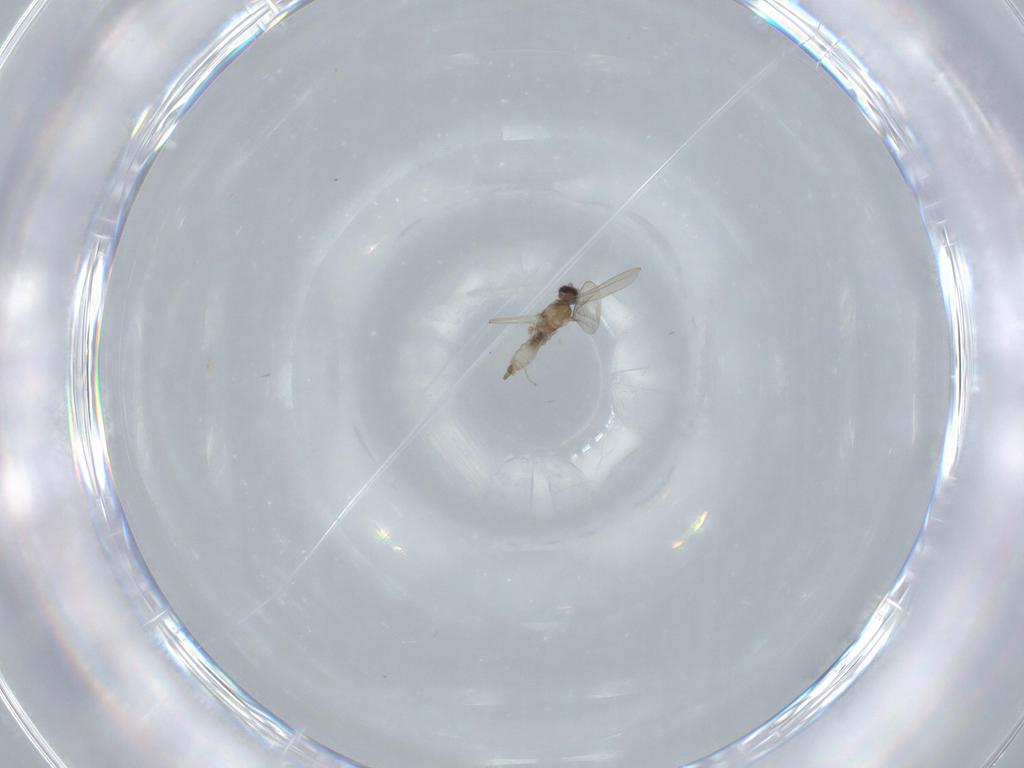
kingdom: Animalia
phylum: Arthropoda
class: Insecta
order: Diptera
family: Cecidomyiidae
